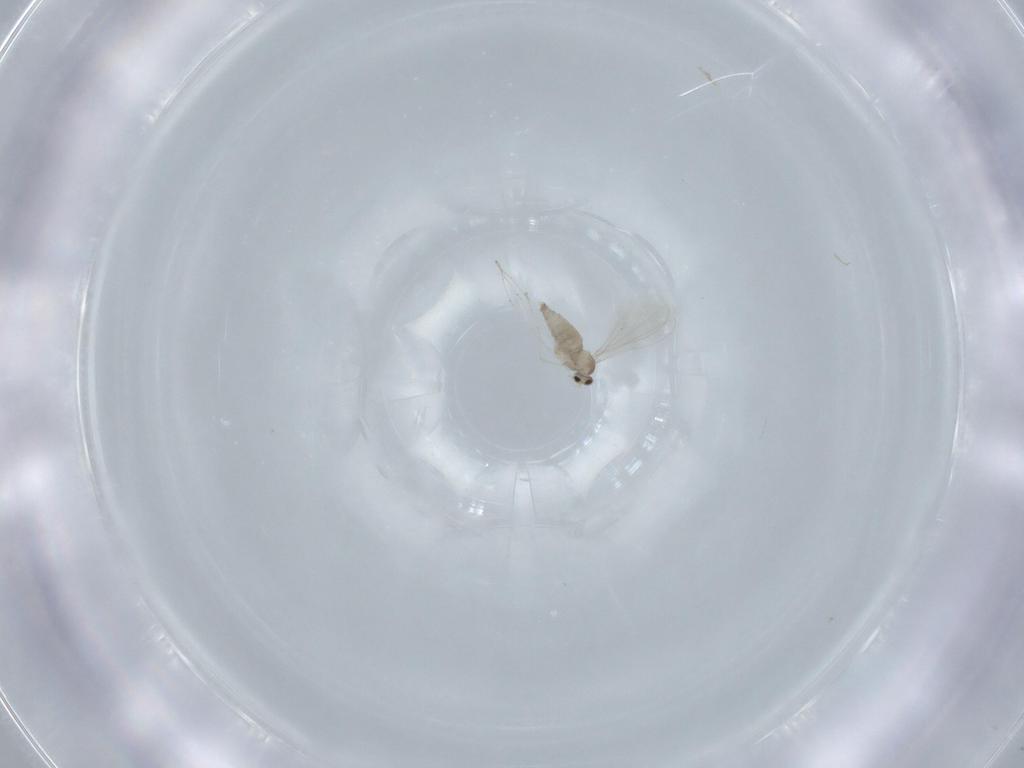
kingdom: Animalia
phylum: Arthropoda
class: Insecta
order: Diptera
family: Cecidomyiidae
